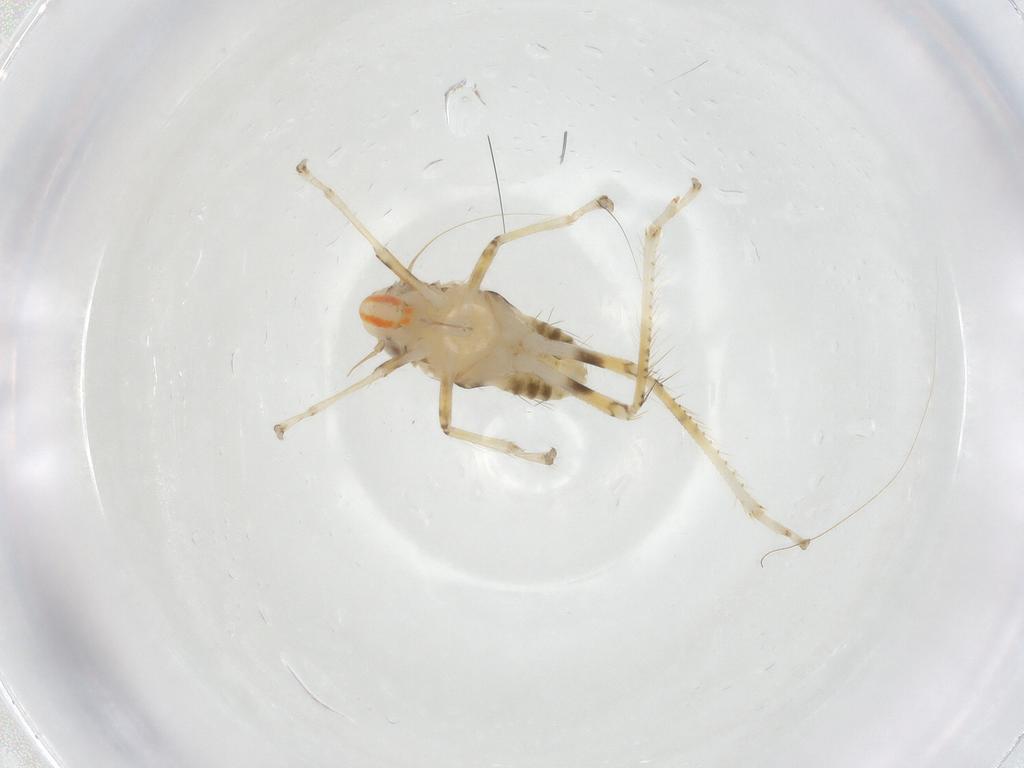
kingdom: Animalia
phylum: Arthropoda
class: Insecta
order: Hemiptera
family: Cicadellidae
